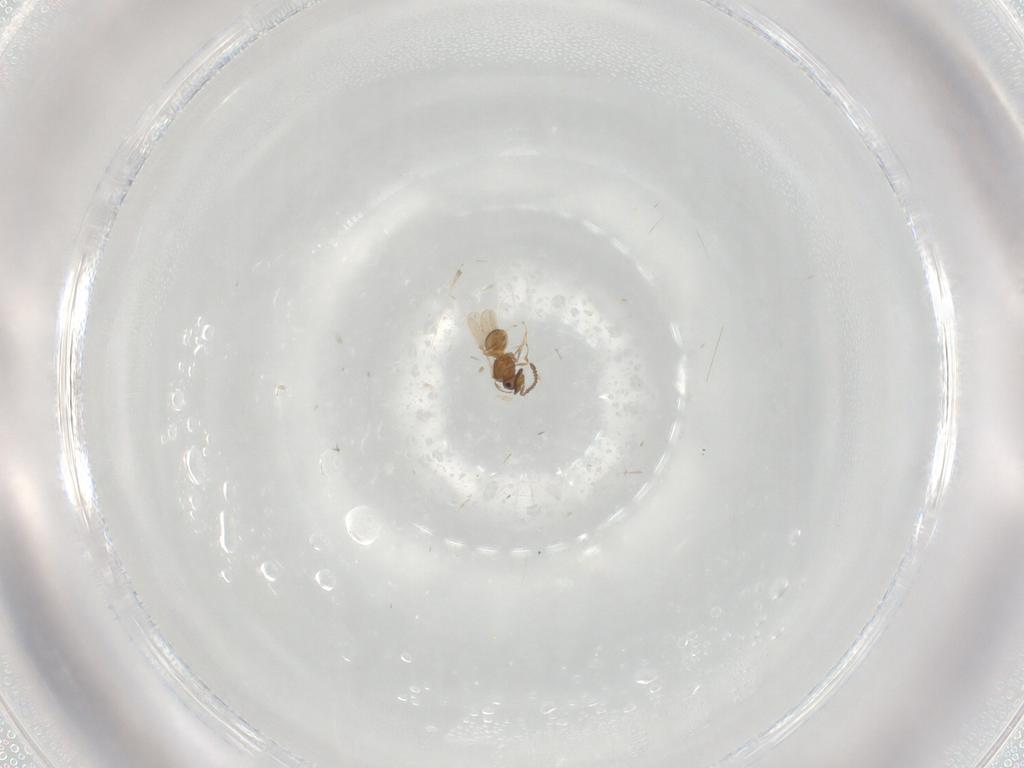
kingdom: Animalia
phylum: Arthropoda
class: Insecta
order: Hymenoptera
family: Scelionidae
